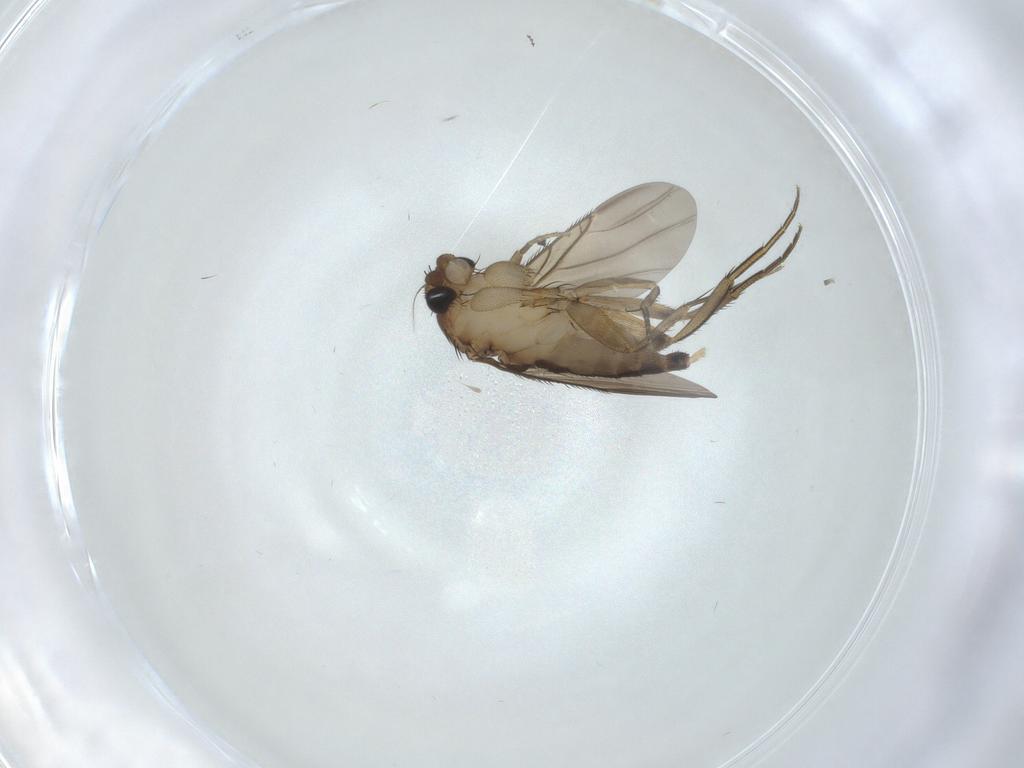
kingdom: Animalia
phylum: Arthropoda
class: Insecta
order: Diptera
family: Phoridae
